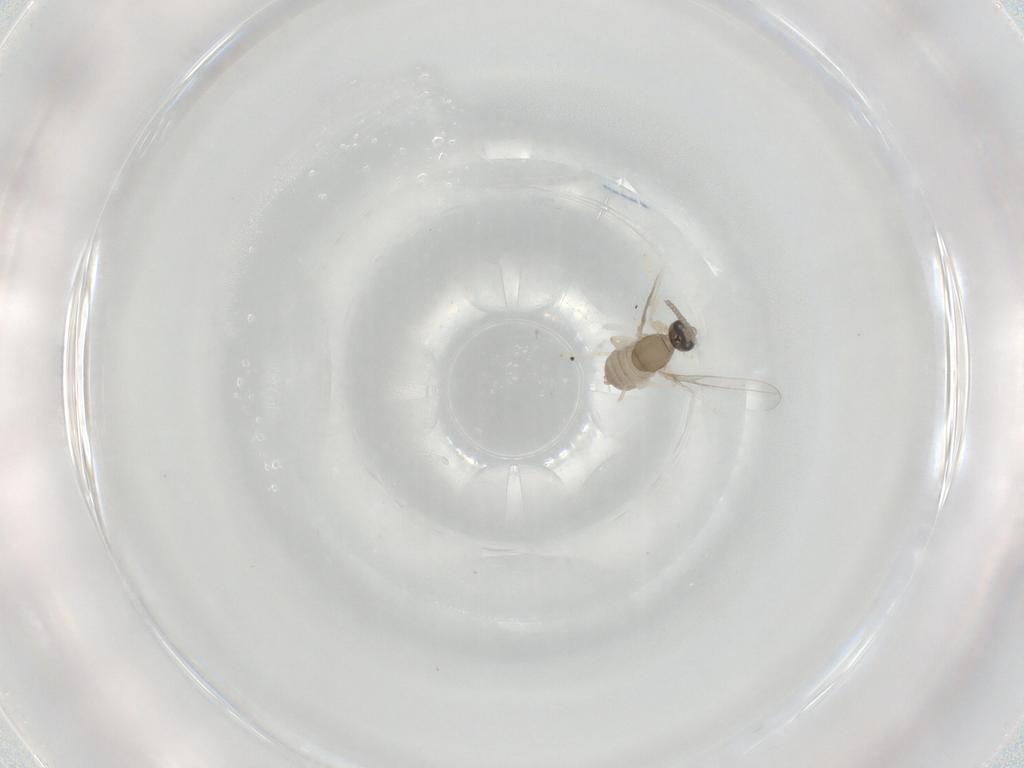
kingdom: Animalia
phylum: Arthropoda
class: Insecta
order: Diptera
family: Cecidomyiidae
